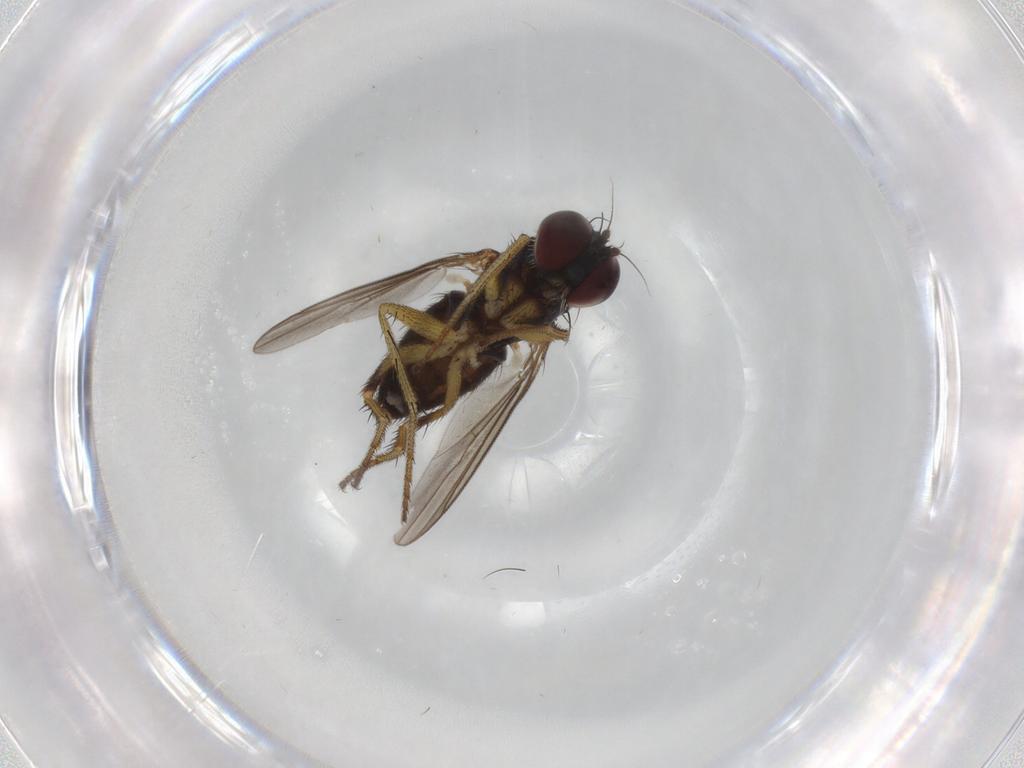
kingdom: Animalia
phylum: Arthropoda
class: Insecta
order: Diptera
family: Dolichopodidae
